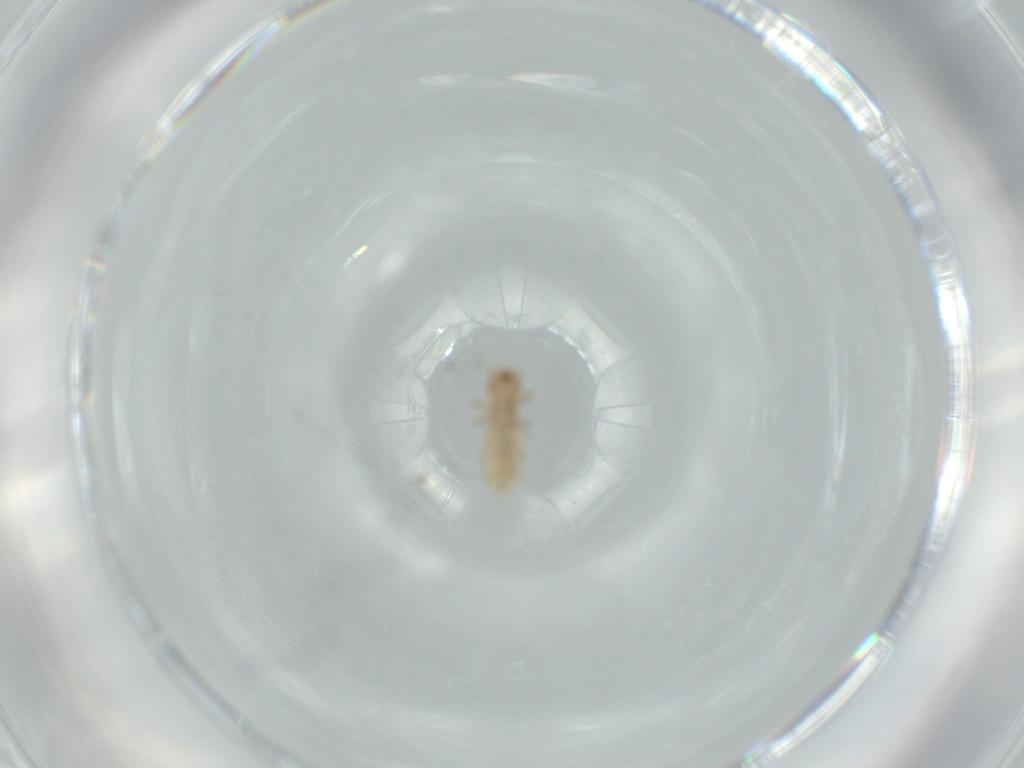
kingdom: Animalia
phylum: Arthropoda
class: Insecta
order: Psocodea
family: Liposcelididae
